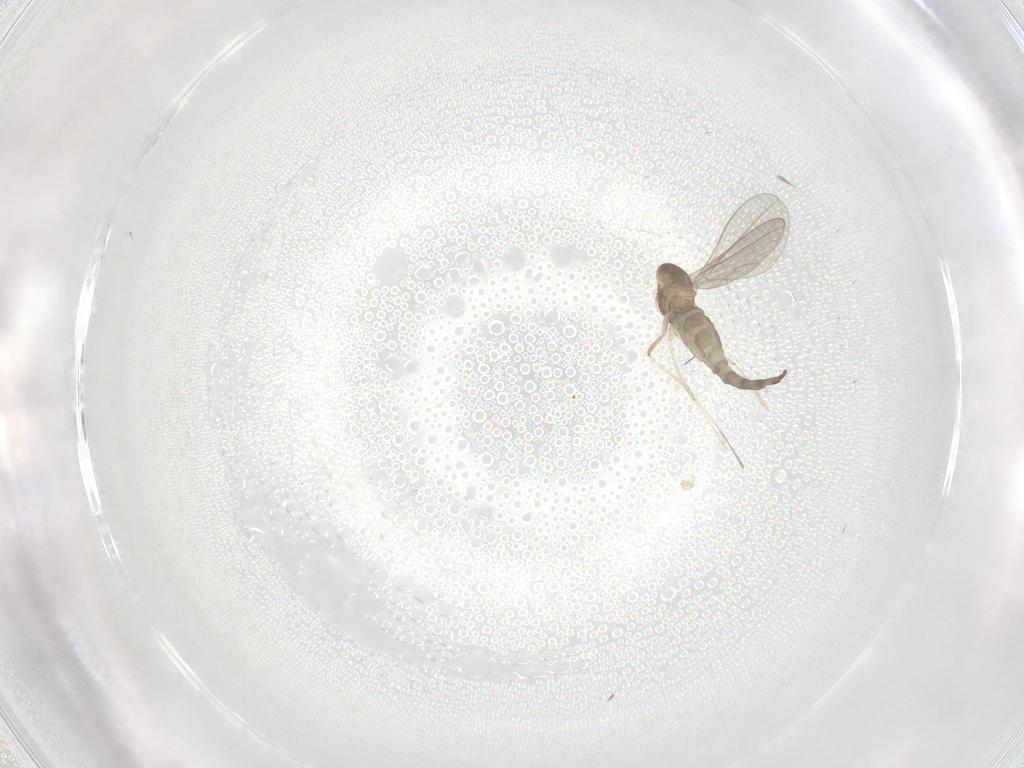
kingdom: Animalia
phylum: Arthropoda
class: Insecta
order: Diptera
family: Cecidomyiidae
